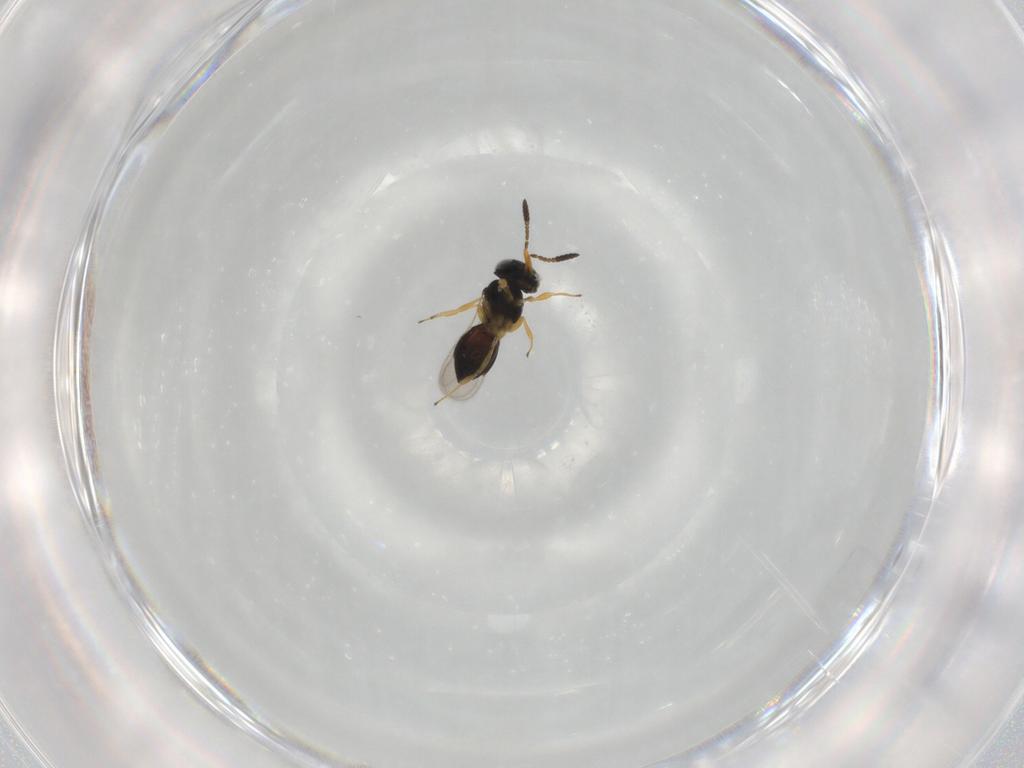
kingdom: Animalia
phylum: Arthropoda
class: Insecta
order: Hymenoptera
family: Scelionidae
